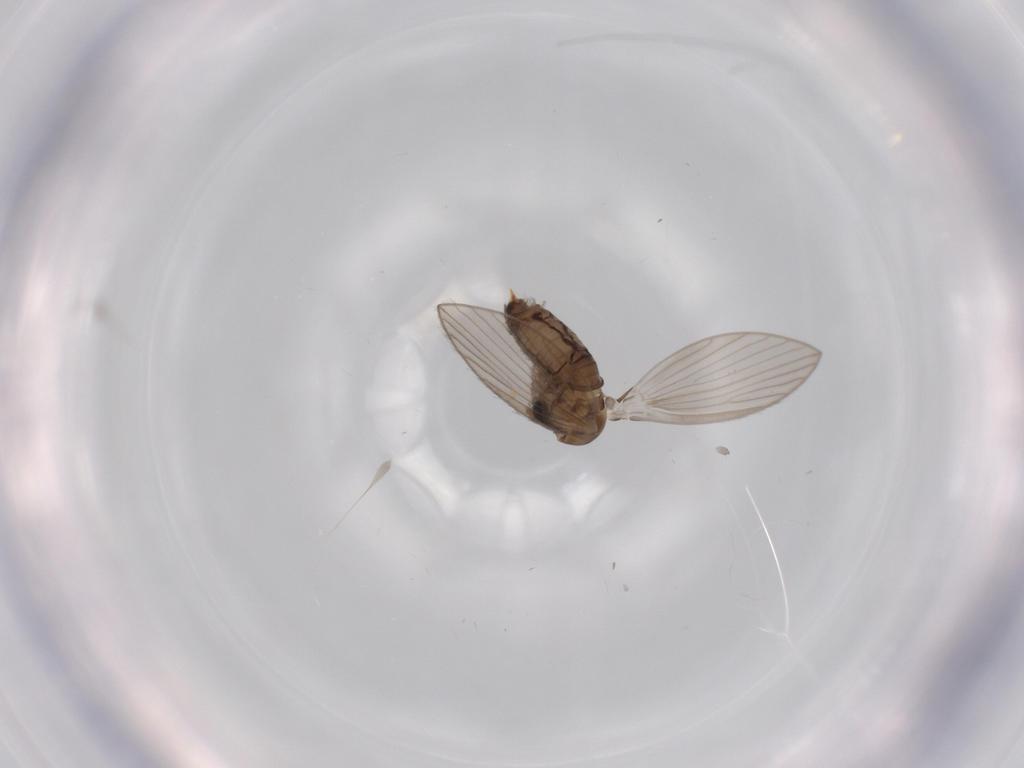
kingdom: Animalia
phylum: Arthropoda
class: Insecta
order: Diptera
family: Psychodidae
